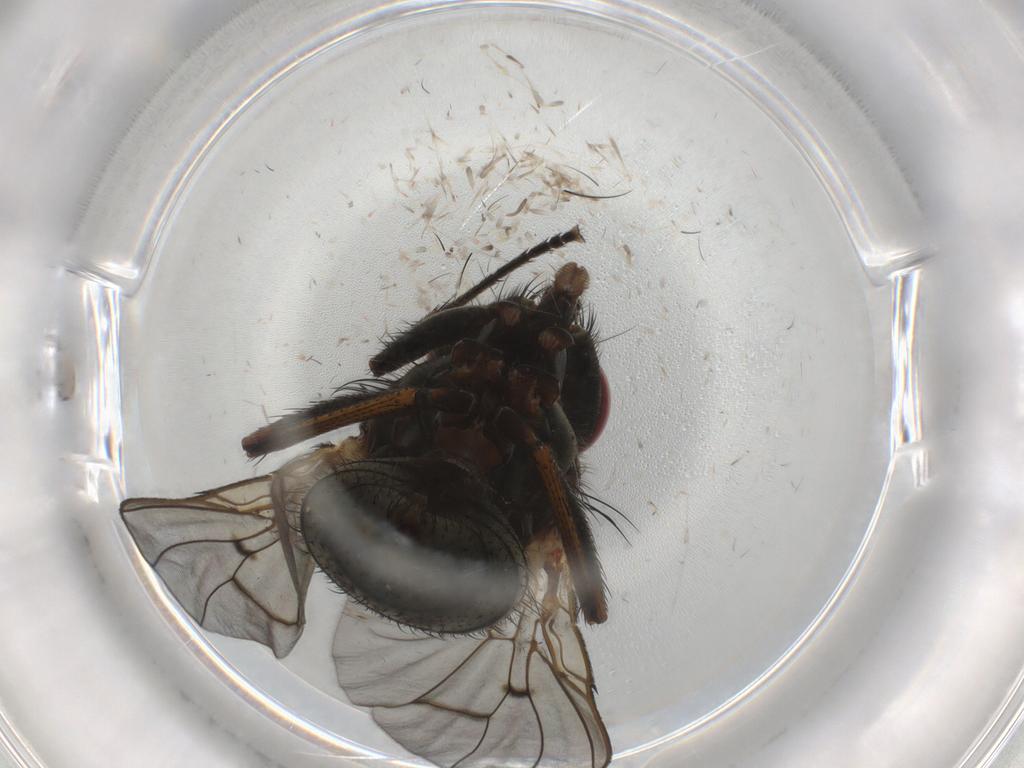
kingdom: Animalia
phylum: Arthropoda
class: Insecta
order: Diptera
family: Muscidae
